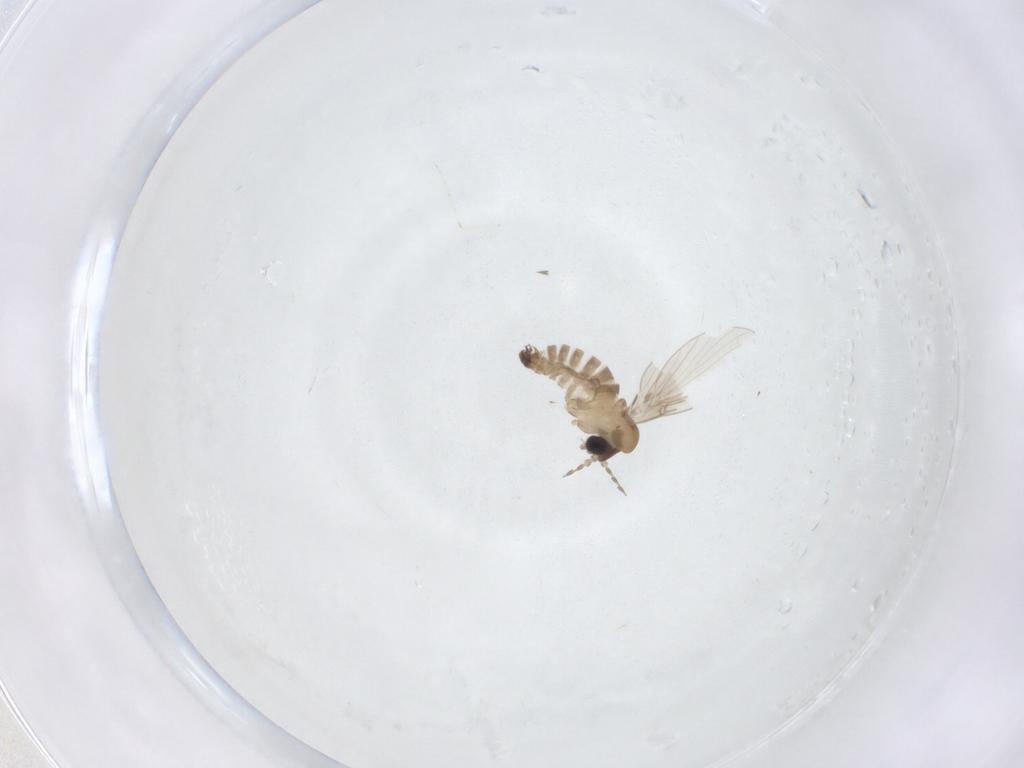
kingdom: Animalia
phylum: Arthropoda
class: Insecta
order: Diptera
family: Psychodidae
